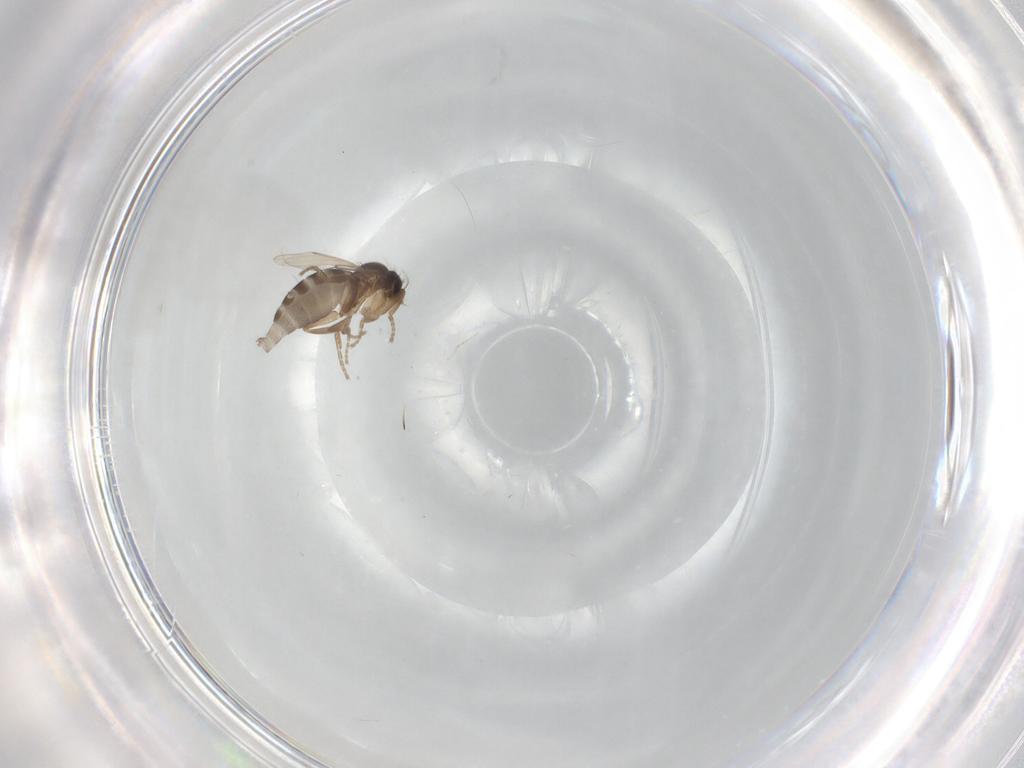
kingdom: Animalia
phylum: Arthropoda
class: Insecta
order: Diptera
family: Phoridae
